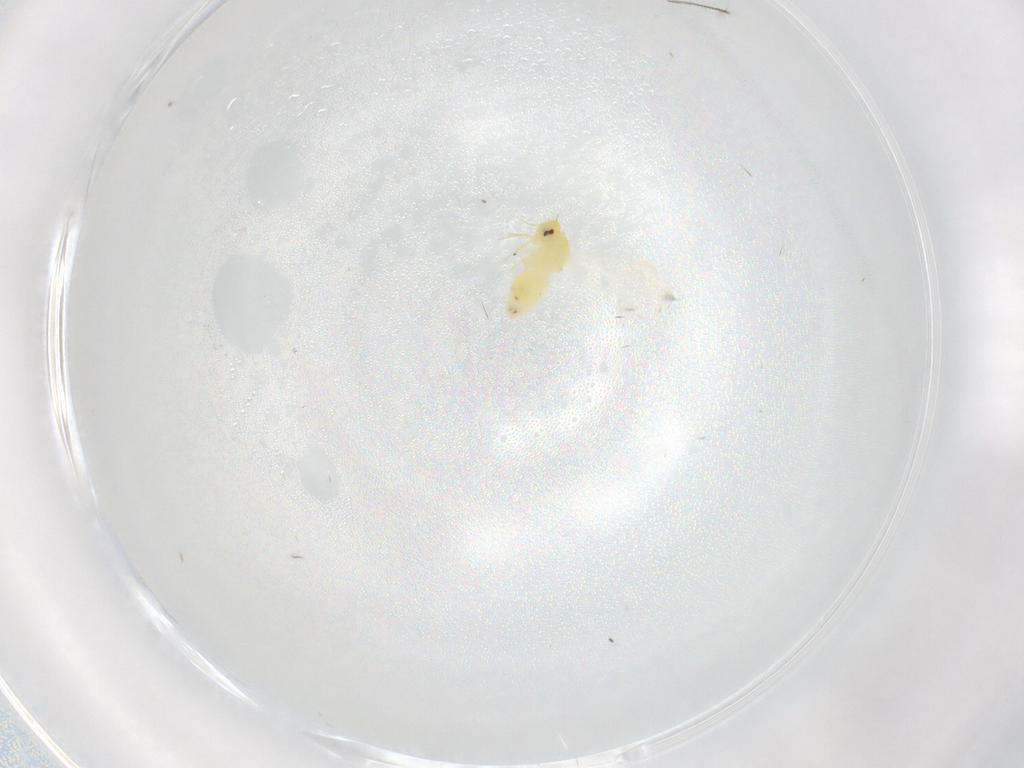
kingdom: Animalia
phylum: Arthropoda
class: Insecta
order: Hemiptera
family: Aleyrodidae
